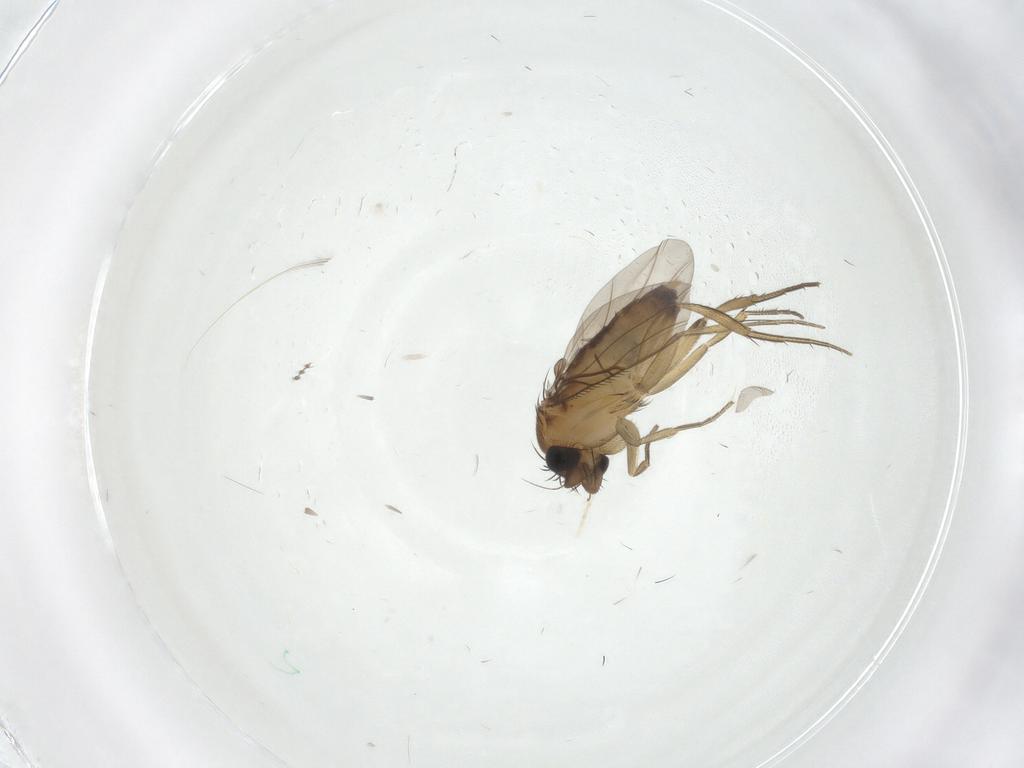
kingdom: Animalia
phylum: Arthropoda
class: Insecta
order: Diptera
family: Phoridae
